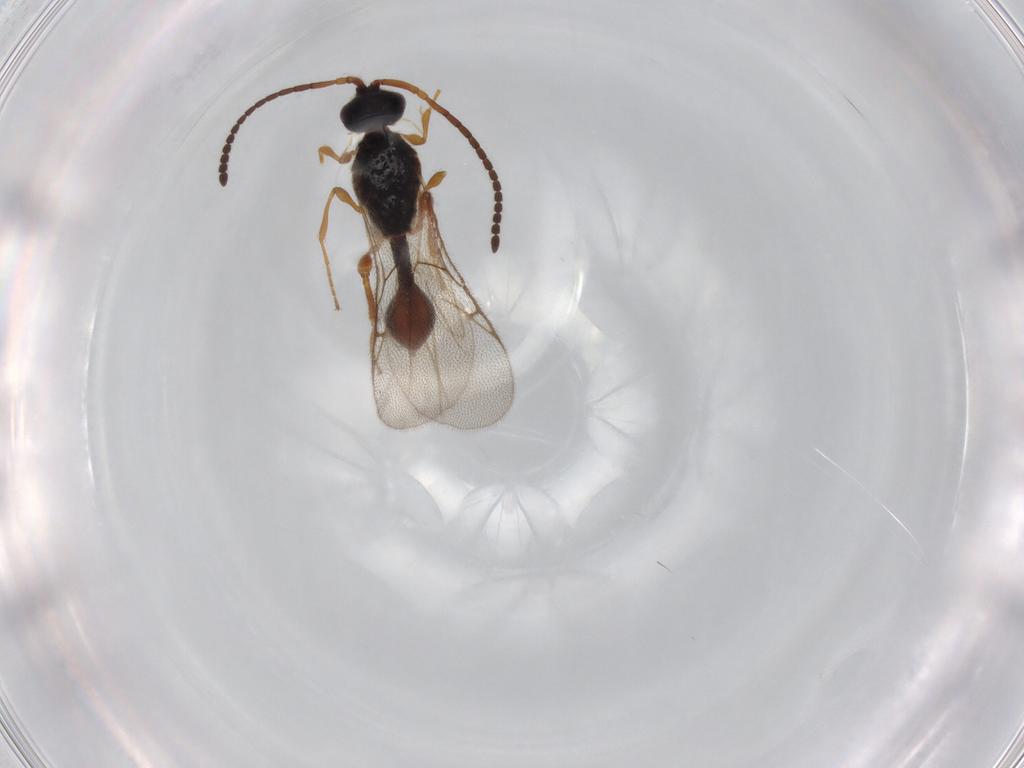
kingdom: Animalia
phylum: Arthropoda
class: Insecta
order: Hymenoptera
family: Diapriidae
